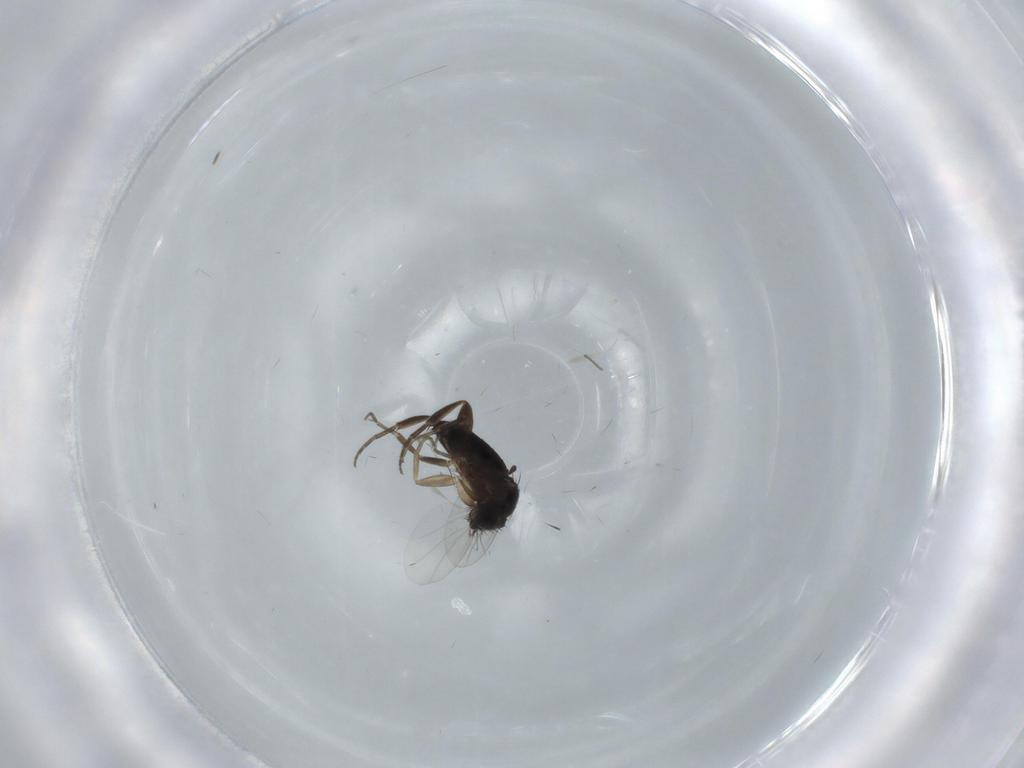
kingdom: Animalia
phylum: Arthropoda
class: Insecta
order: Diptera
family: Phoridae
